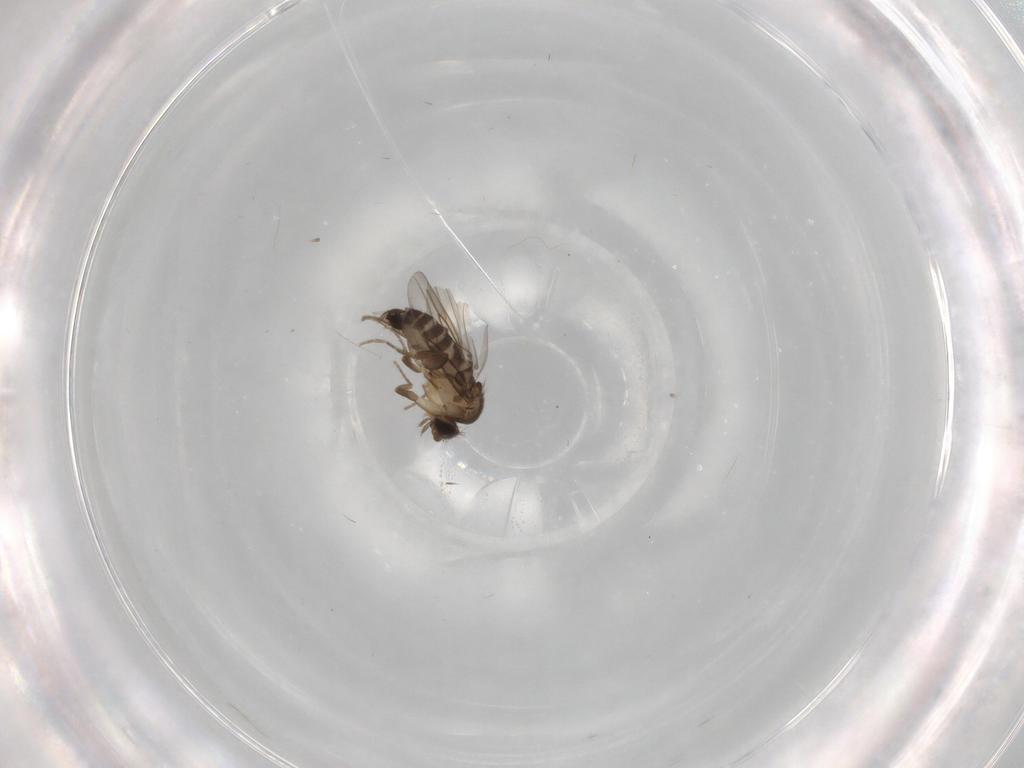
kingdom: Animalia
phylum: Arthropoda
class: Insecta
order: Diptera
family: Phoridae
